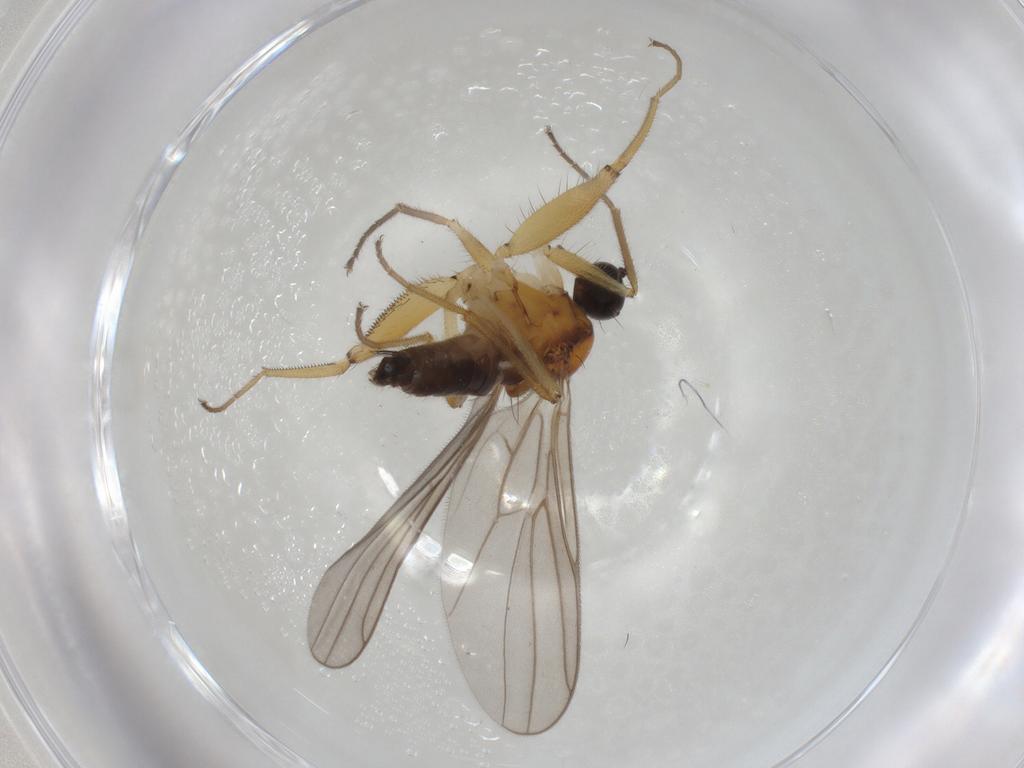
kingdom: Animalia
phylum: Arthropoda
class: Insecta
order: Diptera
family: Hybotidae
